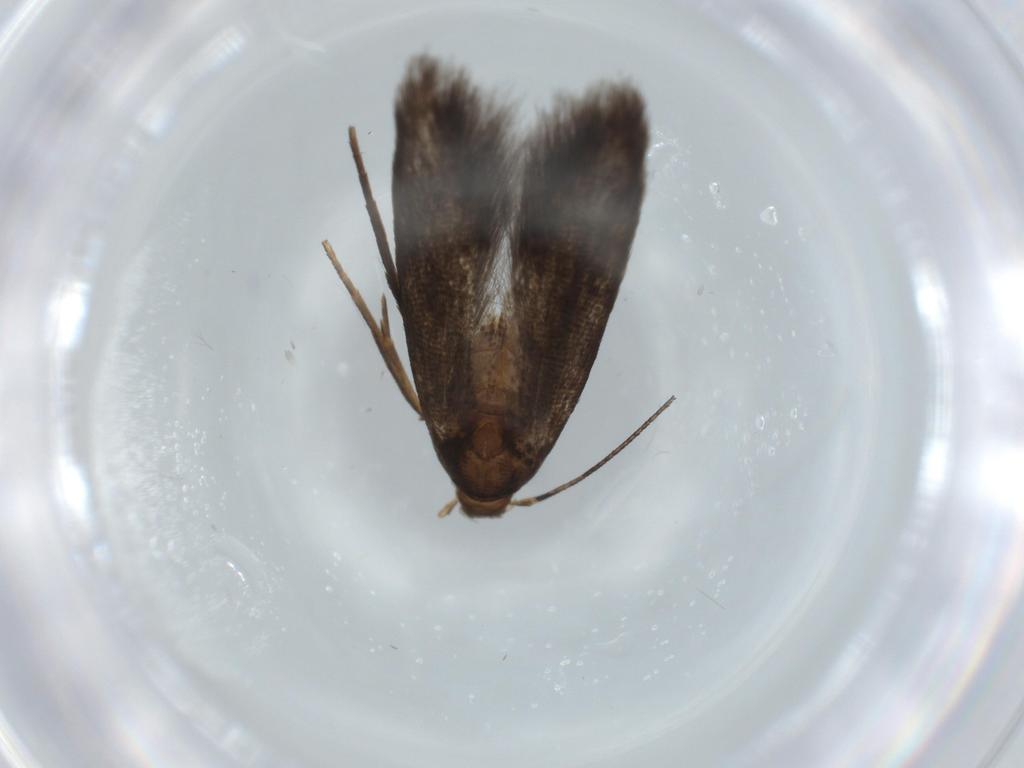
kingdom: Animalia
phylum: Arthropoda
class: Insecta
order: Lepidoptera
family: Cosmopterigidae
